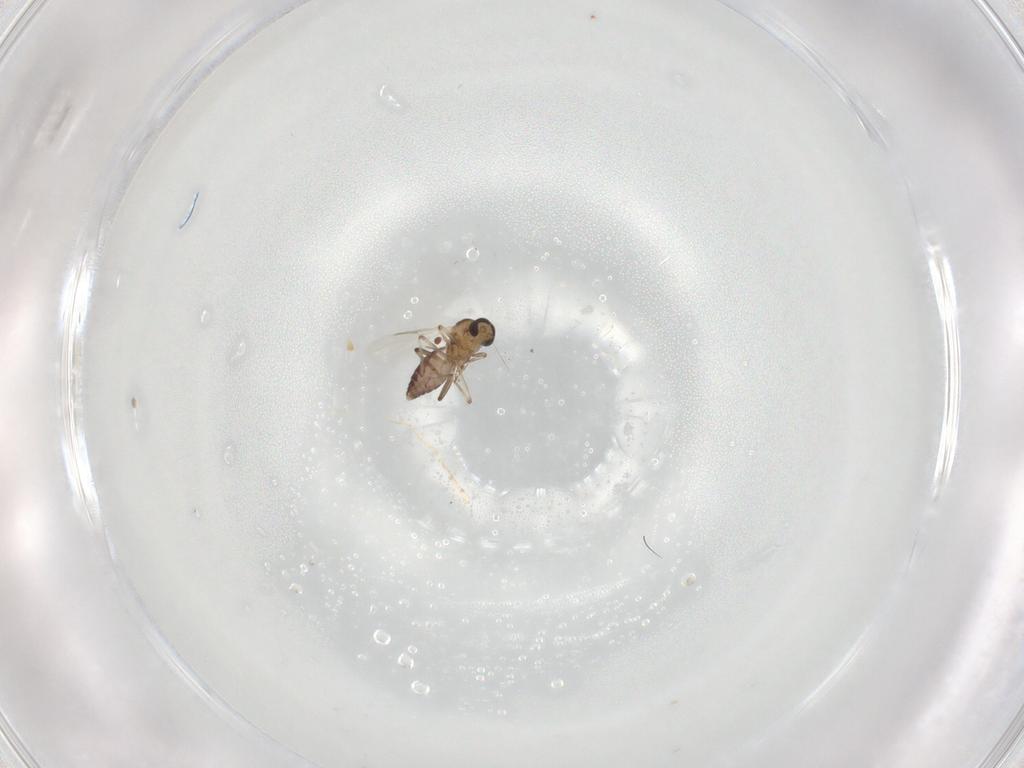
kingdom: Animalia
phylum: Arthropoda
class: Insecta
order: Diptera
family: Ceratopogonidae
